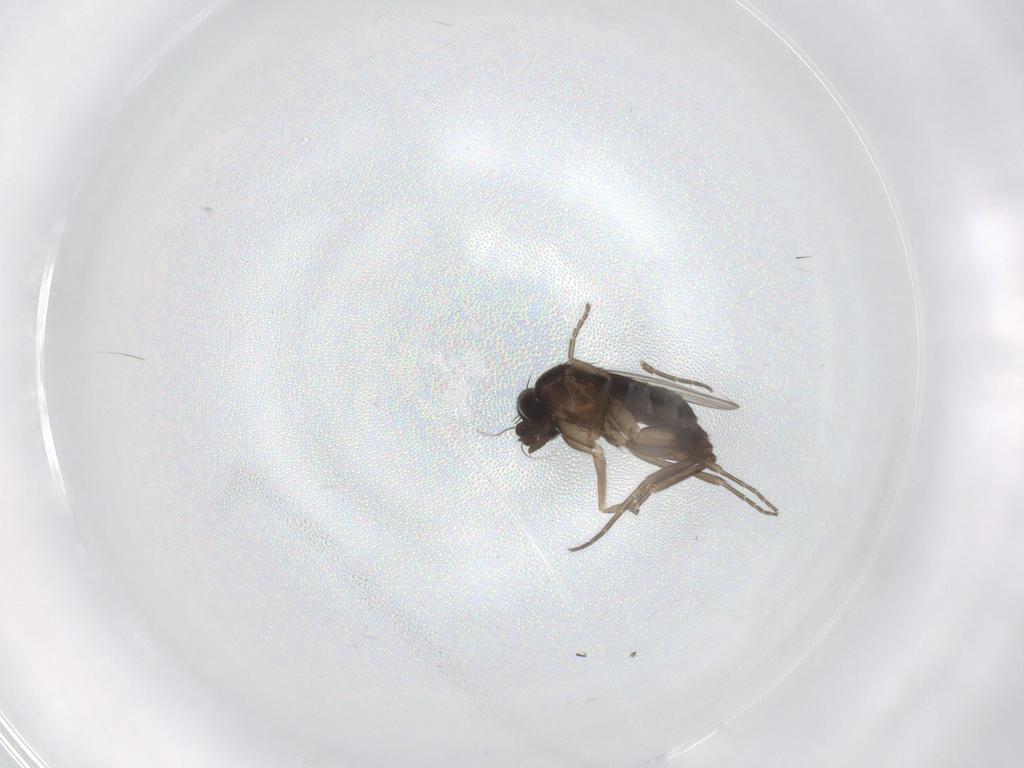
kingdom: Animalia
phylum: Arthropoda
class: Insecta
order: Diptera
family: Phoridae
